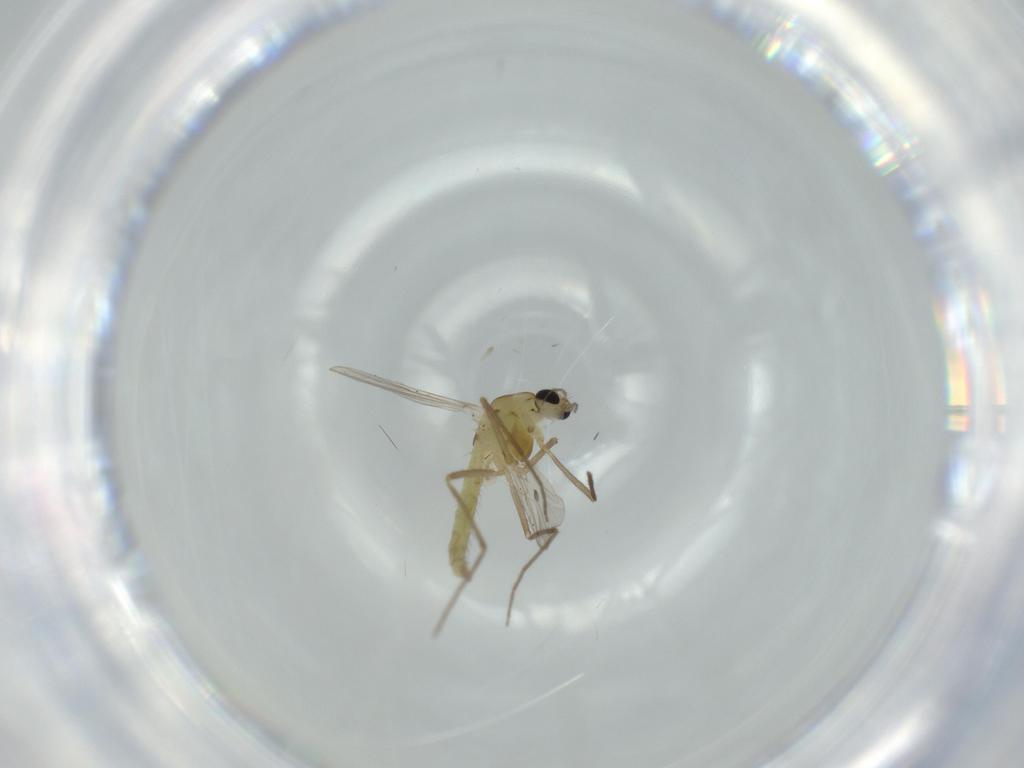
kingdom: Animalia
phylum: Arthropoda
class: Insecta
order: Diptera
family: Chironomidae
